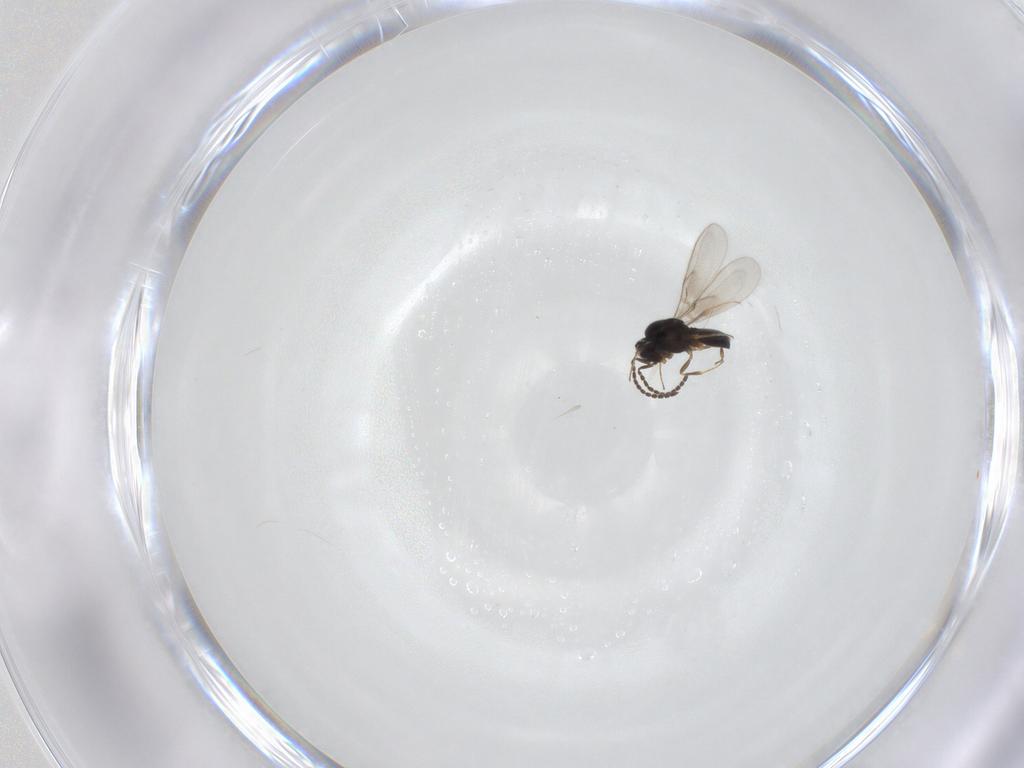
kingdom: Animalia
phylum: Arthropoda
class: Insecta
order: Hymenoptera
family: Scelionidae
